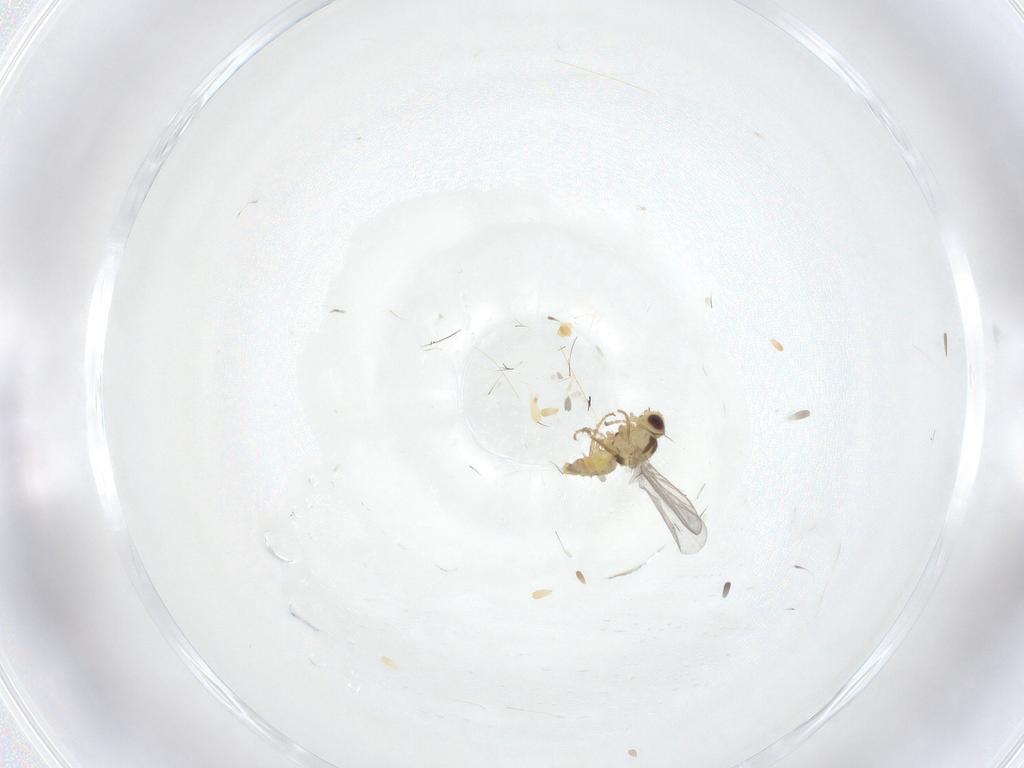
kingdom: Animalia
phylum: Arthropoda
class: Insecta
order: Diptera
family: Agromyzidae
